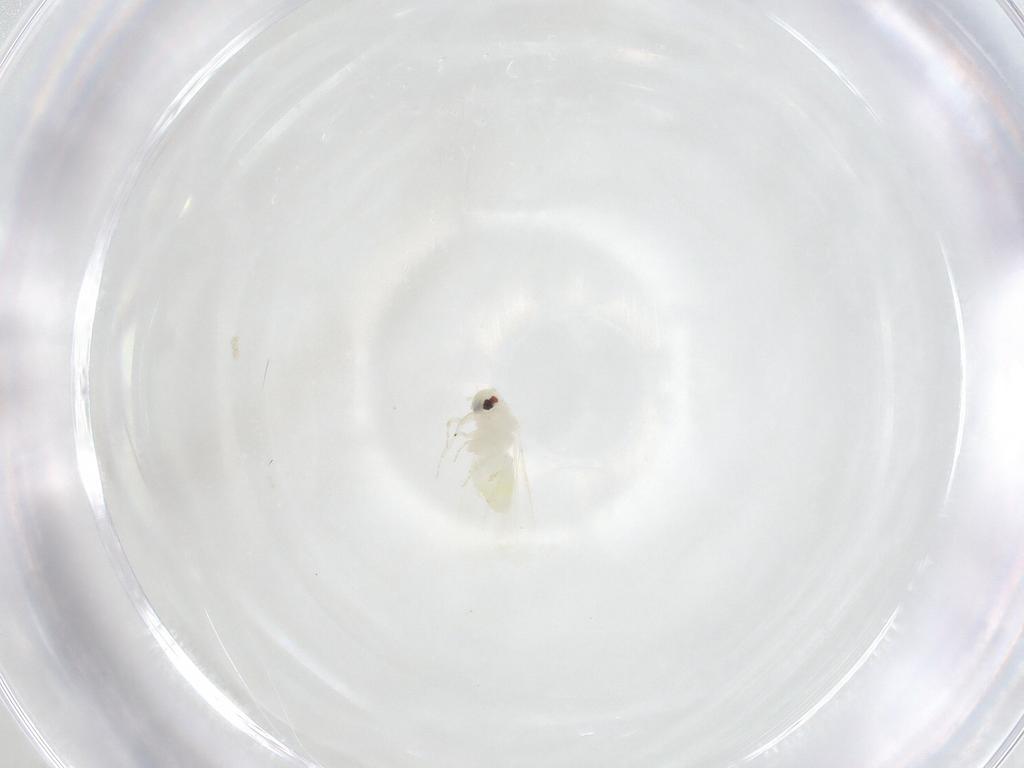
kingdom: Animalia
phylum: Arthropoda
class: Insecta
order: Hemiptera
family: Aleyrodidae
